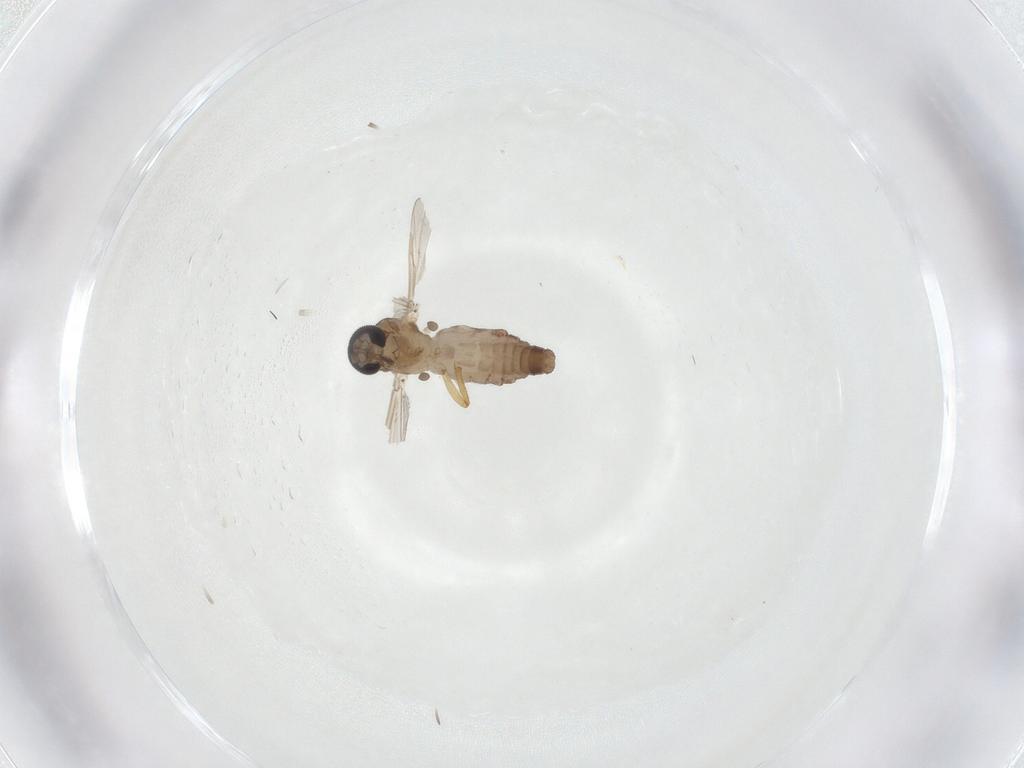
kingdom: Animalia
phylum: Arthropoda
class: Insecta
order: Diptera
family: Ceratopogonidae
